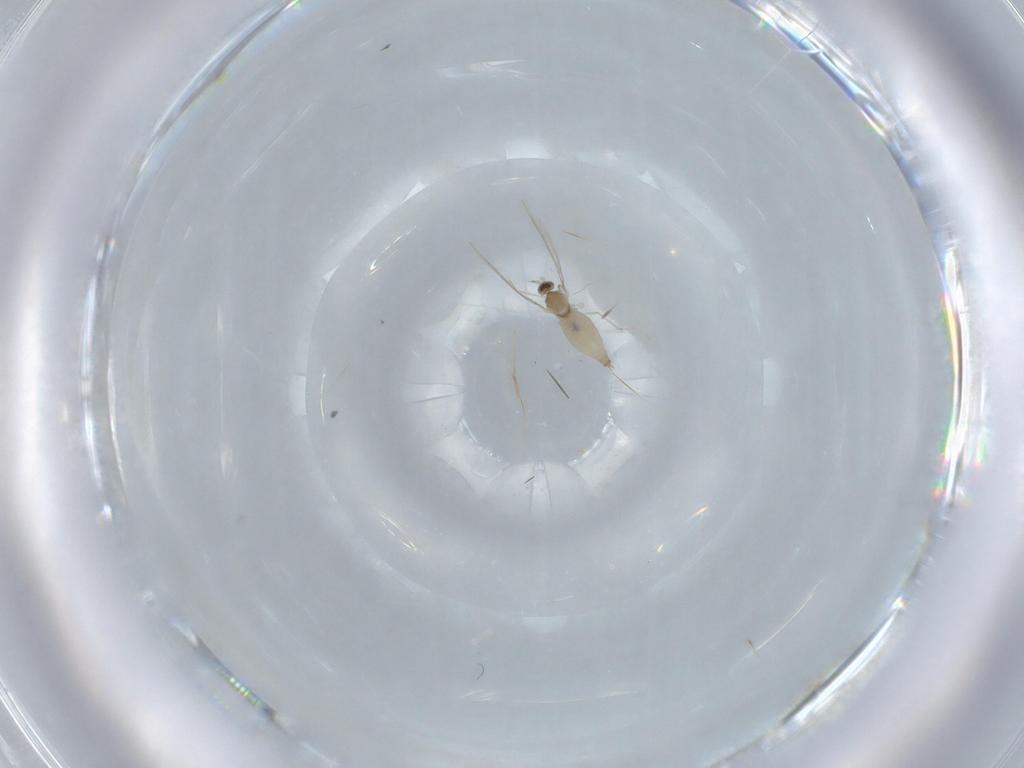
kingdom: Animalia
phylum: Arthropoda
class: Insecta
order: Diptera
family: Cecidomyiidae
